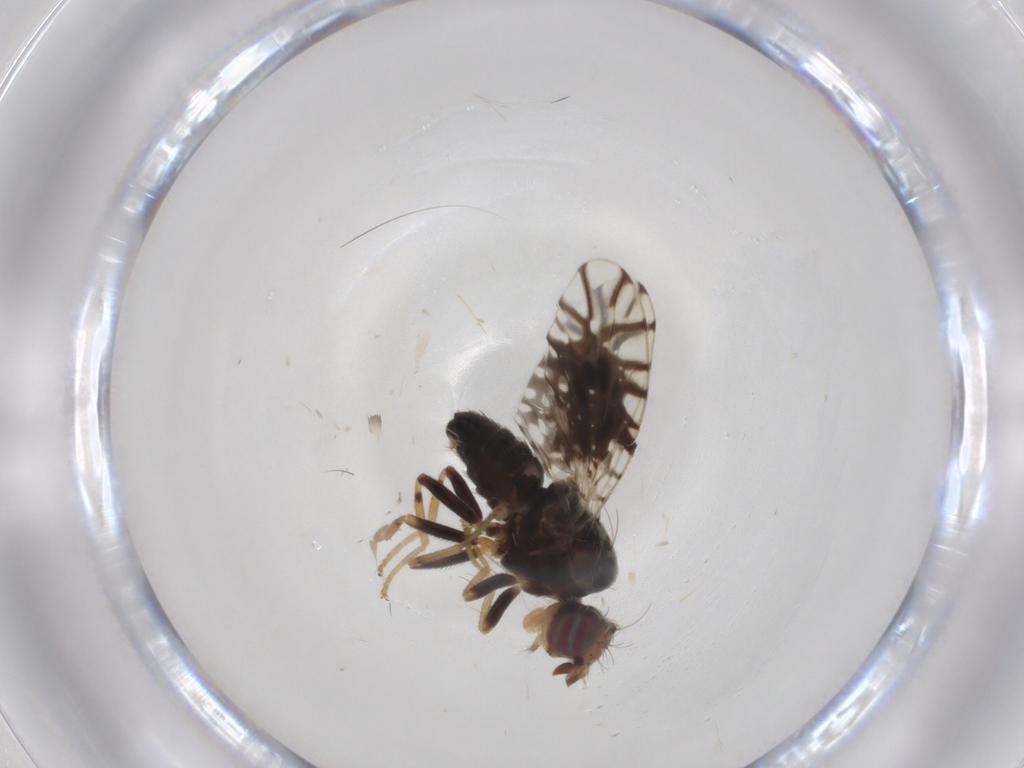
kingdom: Animalia
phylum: Arthropoda
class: Insecta
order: Diptera
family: Tephritidae
